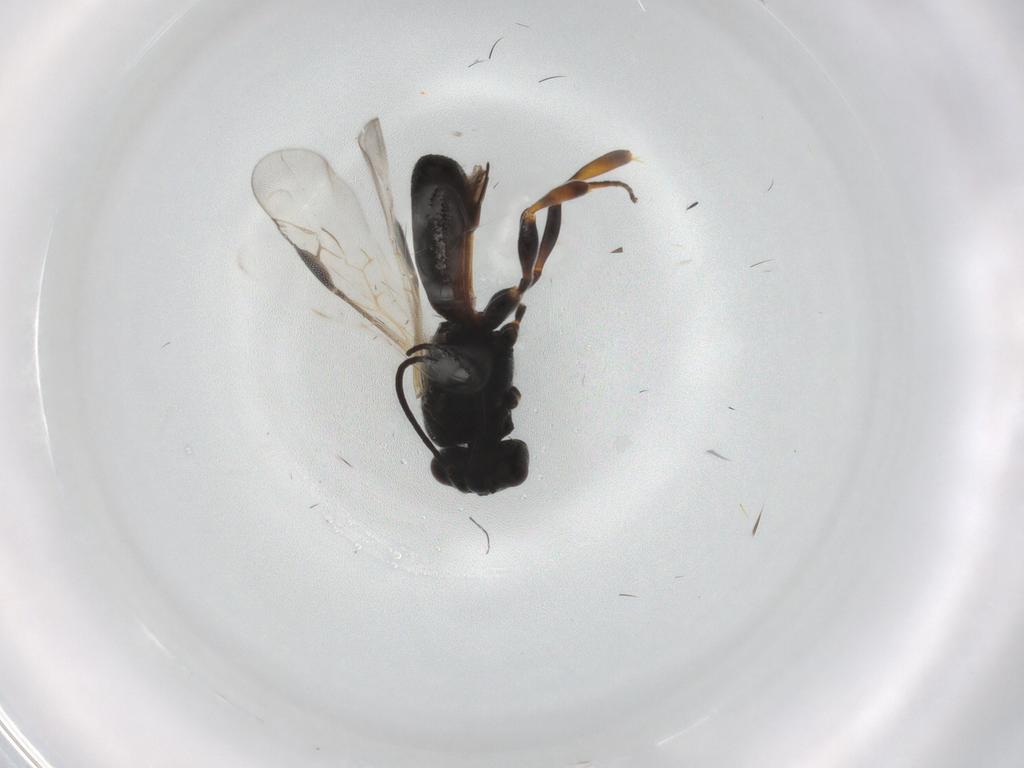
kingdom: Animalia
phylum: Arthropoda
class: Insecta
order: Hymenoptera
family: Braconidae
